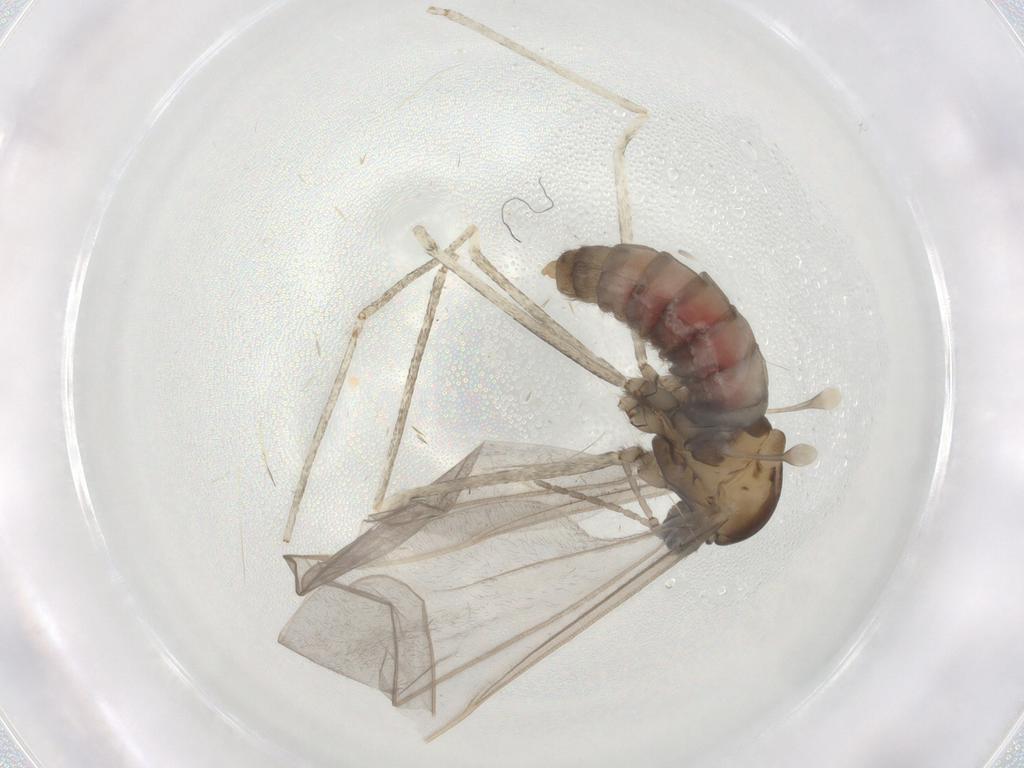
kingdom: Animalia
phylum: Arthropoda
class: Insecta
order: Diptera
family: Cecidomyiidae
